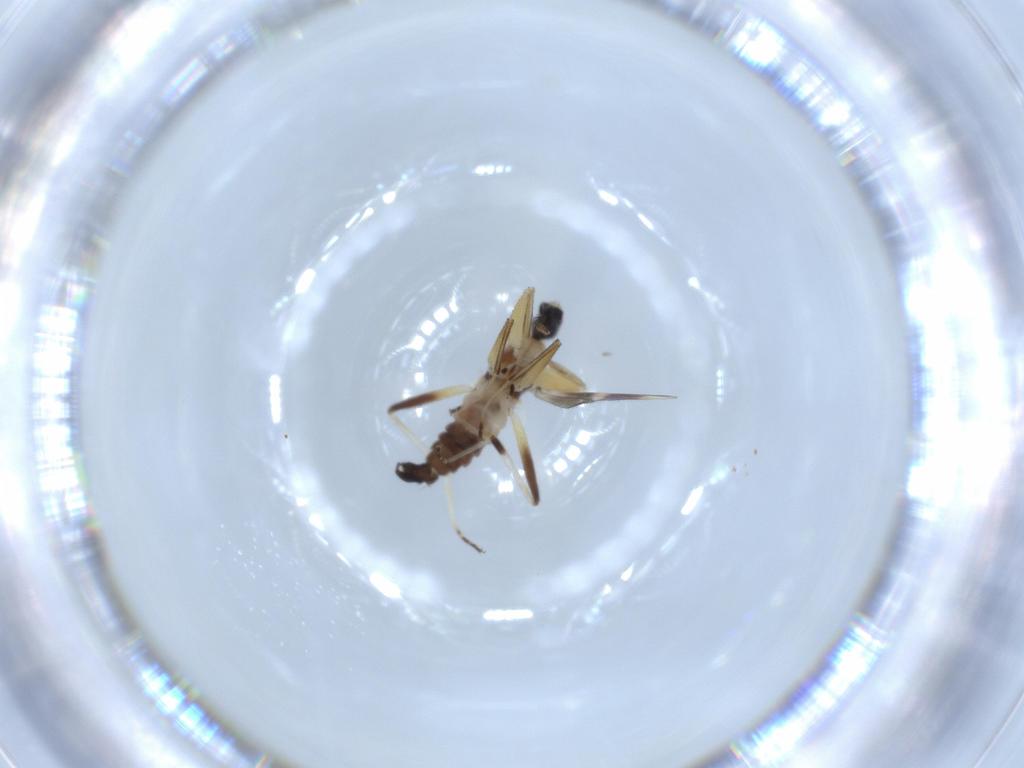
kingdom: Animalia
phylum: Arthropoda
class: Insecta
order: Diptera
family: Hybotidae
